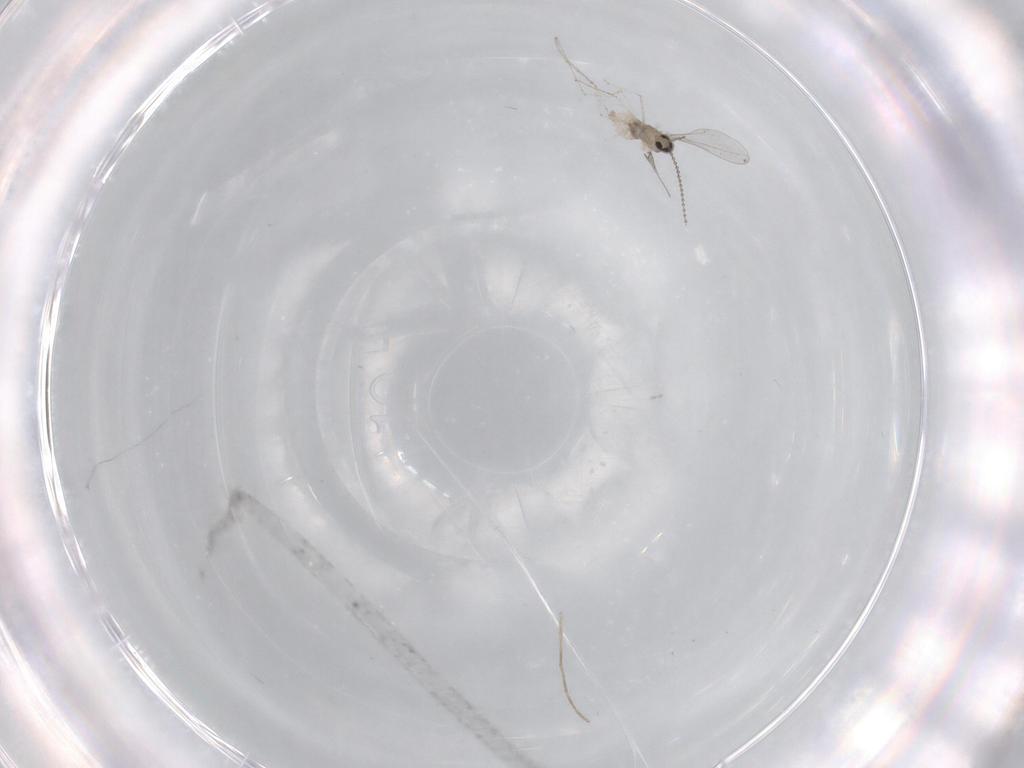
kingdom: Animalia
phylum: Arthropoda
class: Insecta
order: Diptera
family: Cecidomyiidae
